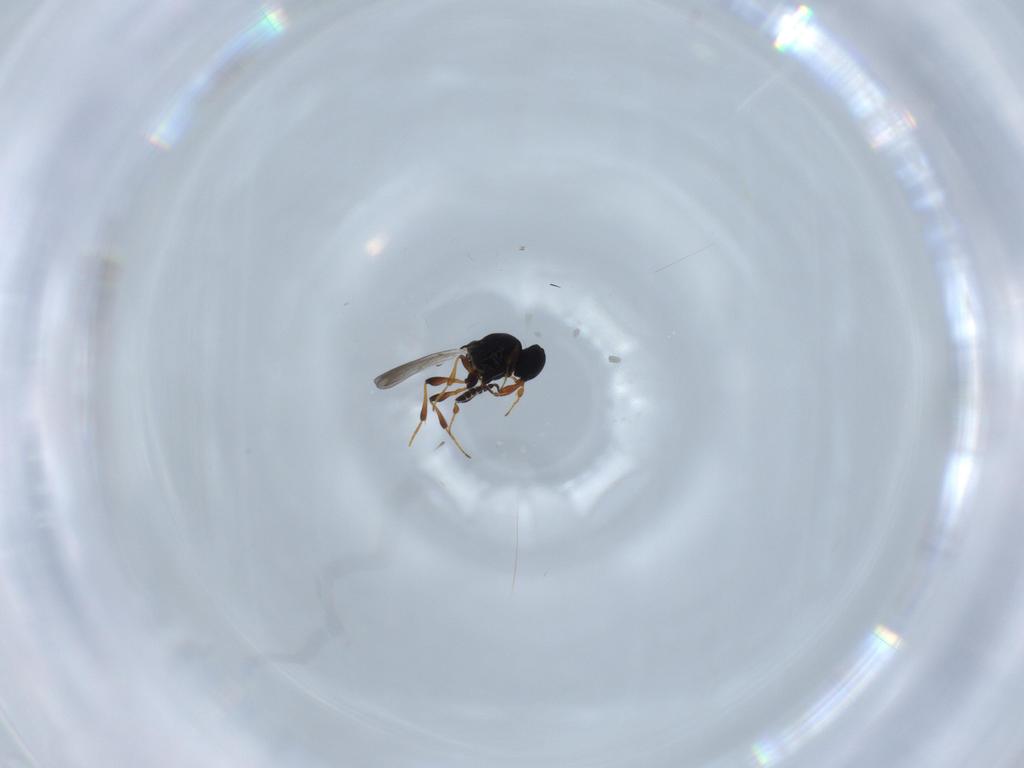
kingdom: Animalia
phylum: Arthropoda
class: Insecta
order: Hymenoptera
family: Platygastridae
